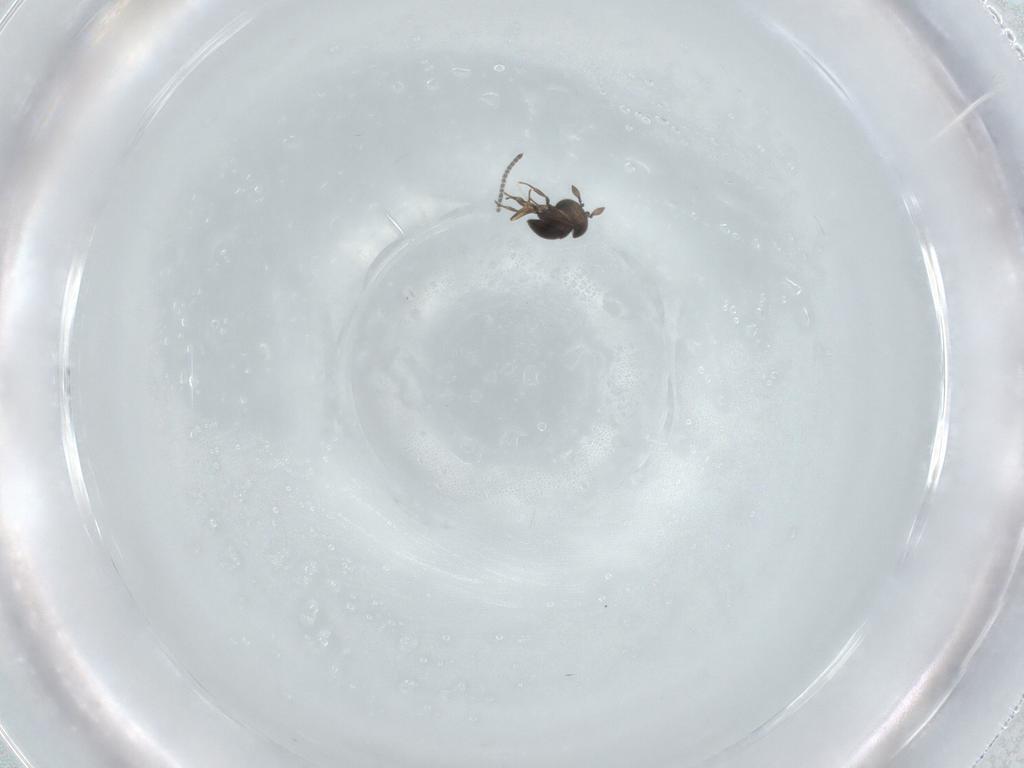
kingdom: Animalia
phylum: Arthropoda
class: Insecta
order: Hymenoptera
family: Scelionidae
